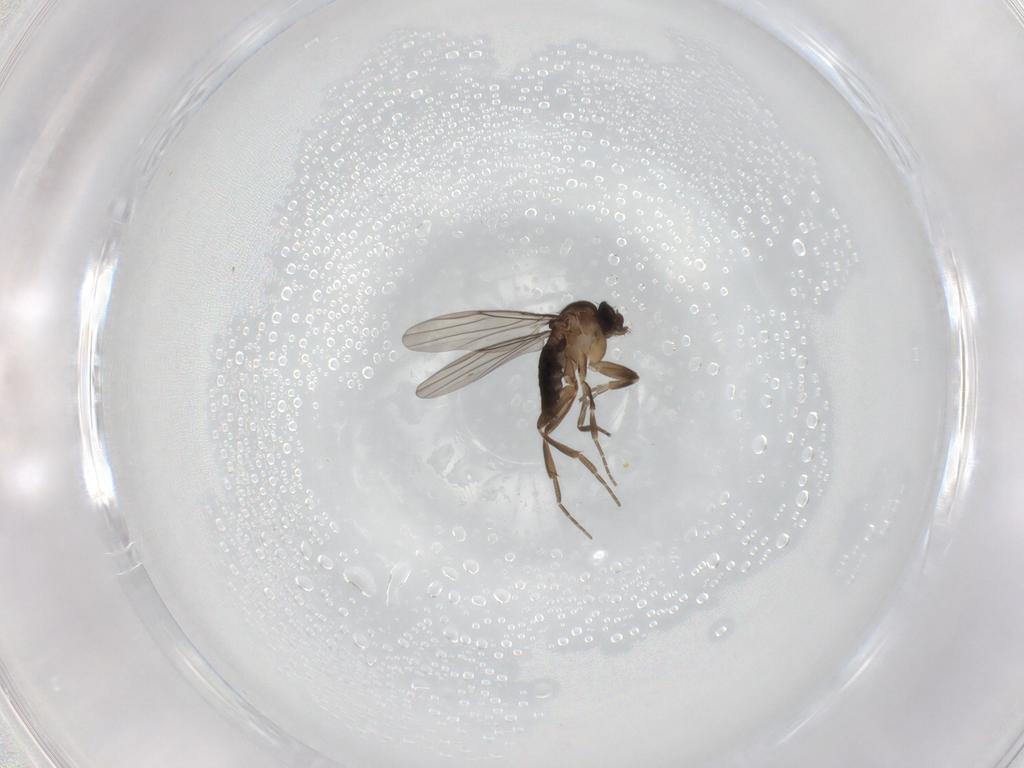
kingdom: Animalia
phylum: Arthropoda
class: Insecta
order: Diptera
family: Phoridae
